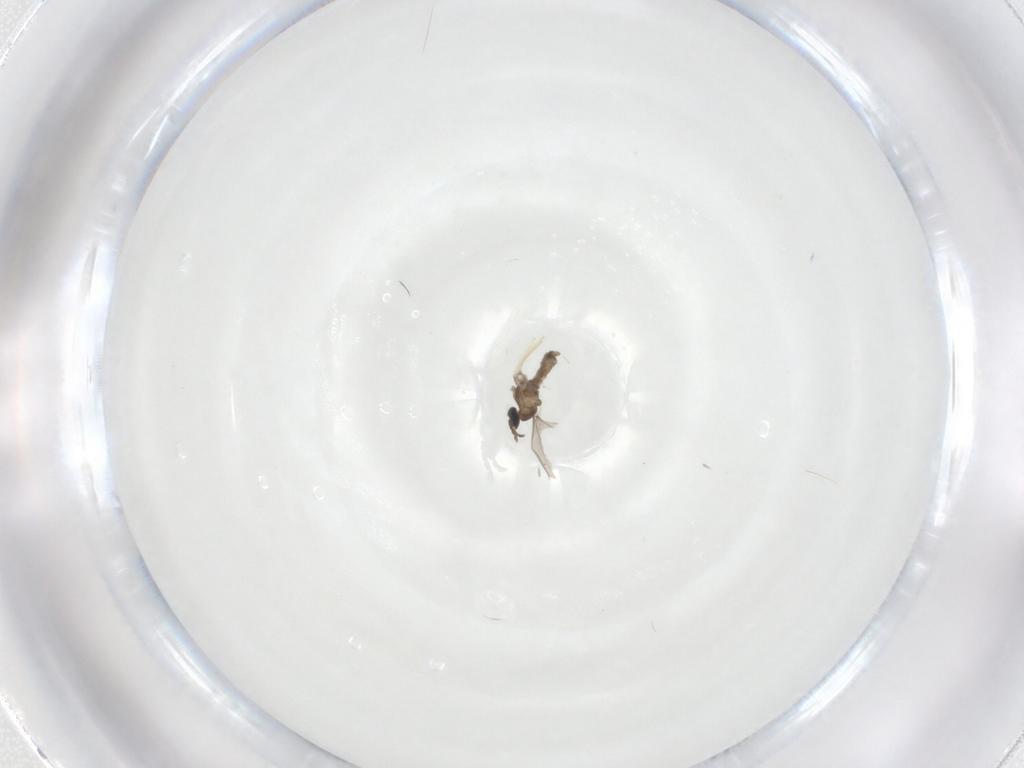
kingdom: Animalia
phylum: Arthropoda
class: Insecta
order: Diptera
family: Cecidomyiidae
